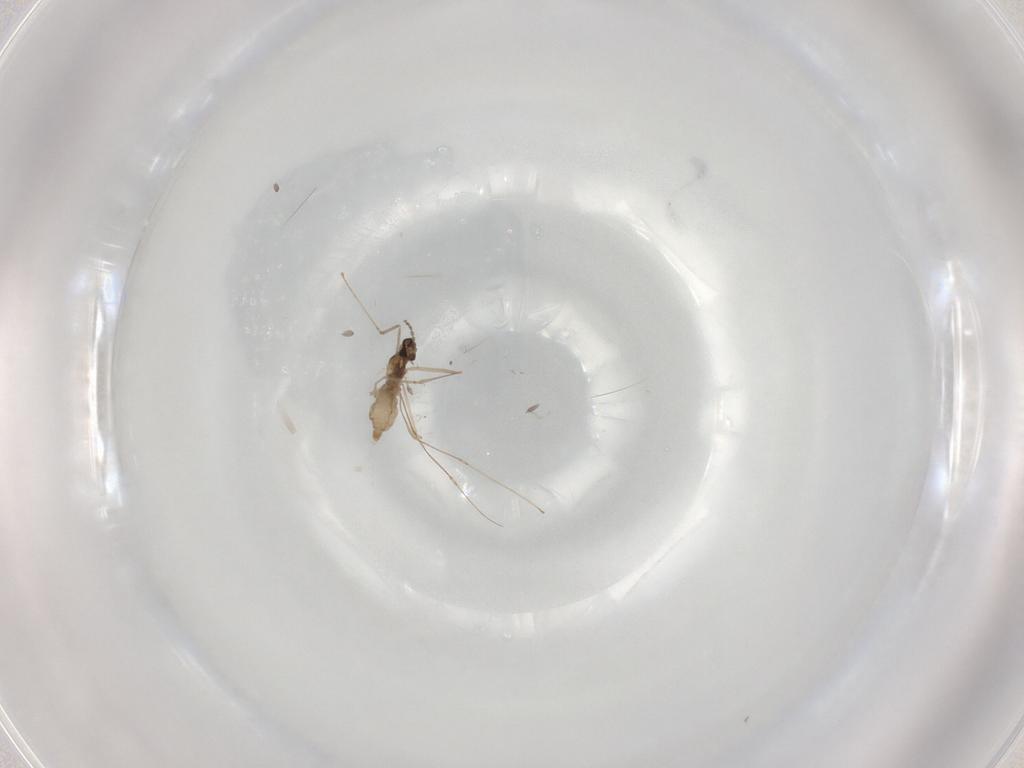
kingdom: Animalia
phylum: Arthropoda
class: Insecta
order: Diptera
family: Cecidomyiidae
